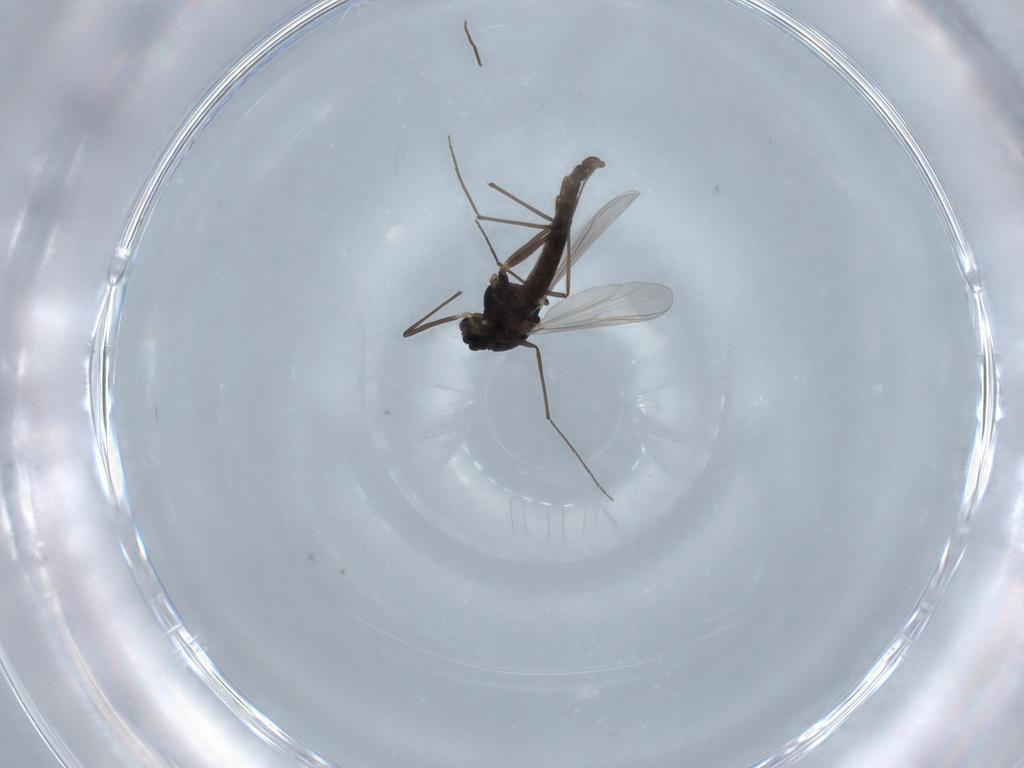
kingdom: Animalia
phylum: Arthropoda
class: Insecta
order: Diptera
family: Chironomidae
